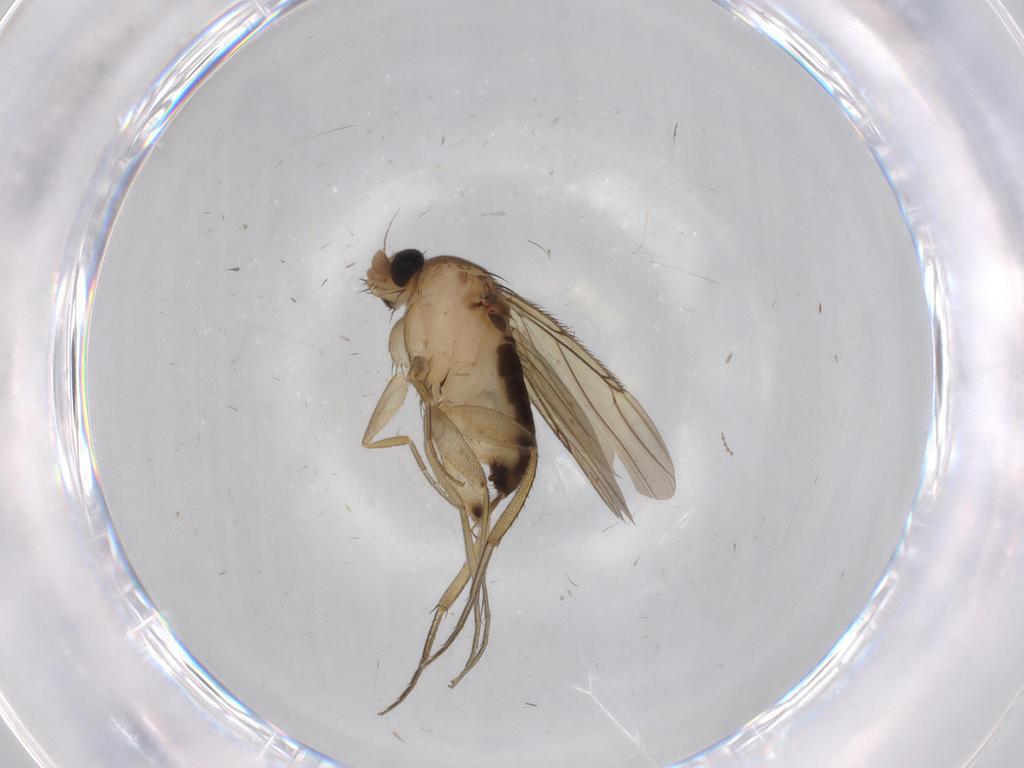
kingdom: Animalia
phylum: Arthropoda
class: Insecta
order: Diptera
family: Phoridae
